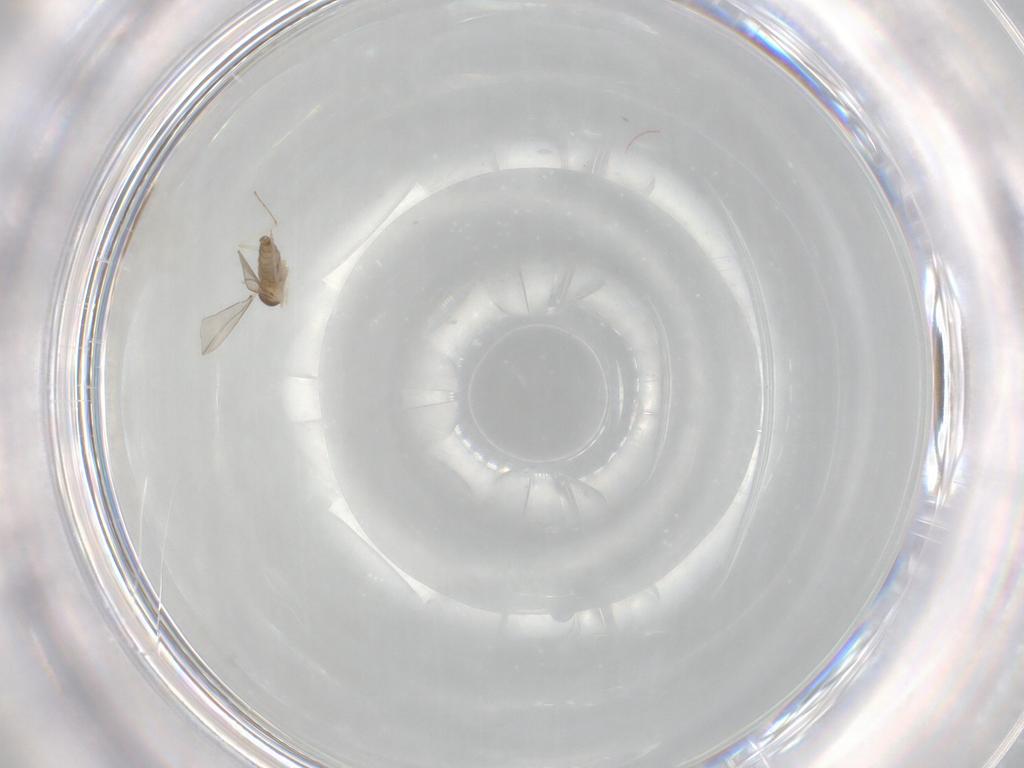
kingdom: Animalia
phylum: Arthropoda
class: Insecta
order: Diptera
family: Cecidomyiidae
